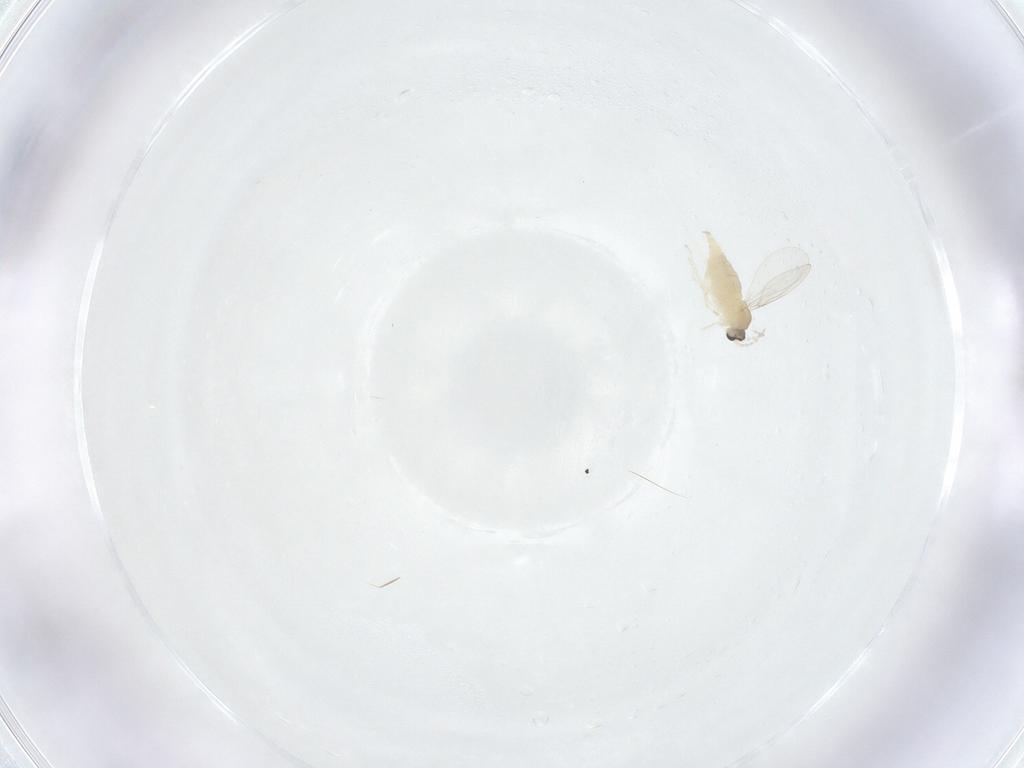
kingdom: Animalia
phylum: Arthropoda
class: Insecta
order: Diptera
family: Cecidomyiidae
